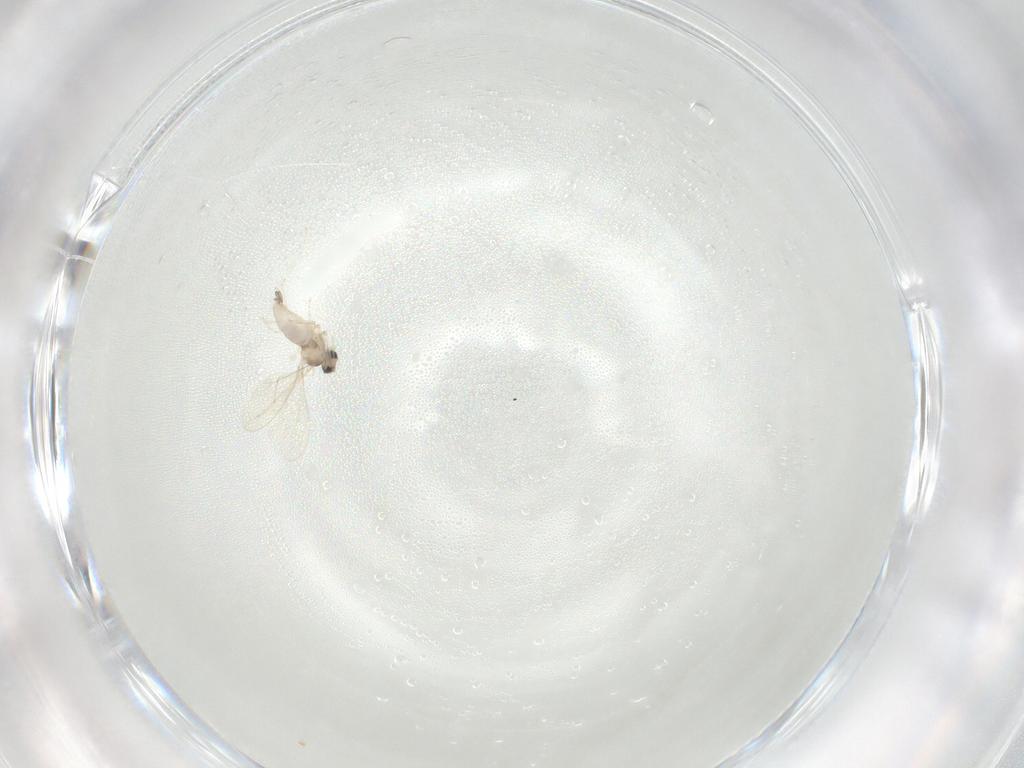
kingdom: Animalia
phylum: Arthropoda
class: Insecta
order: Diptera
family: Cecidomyiidae
